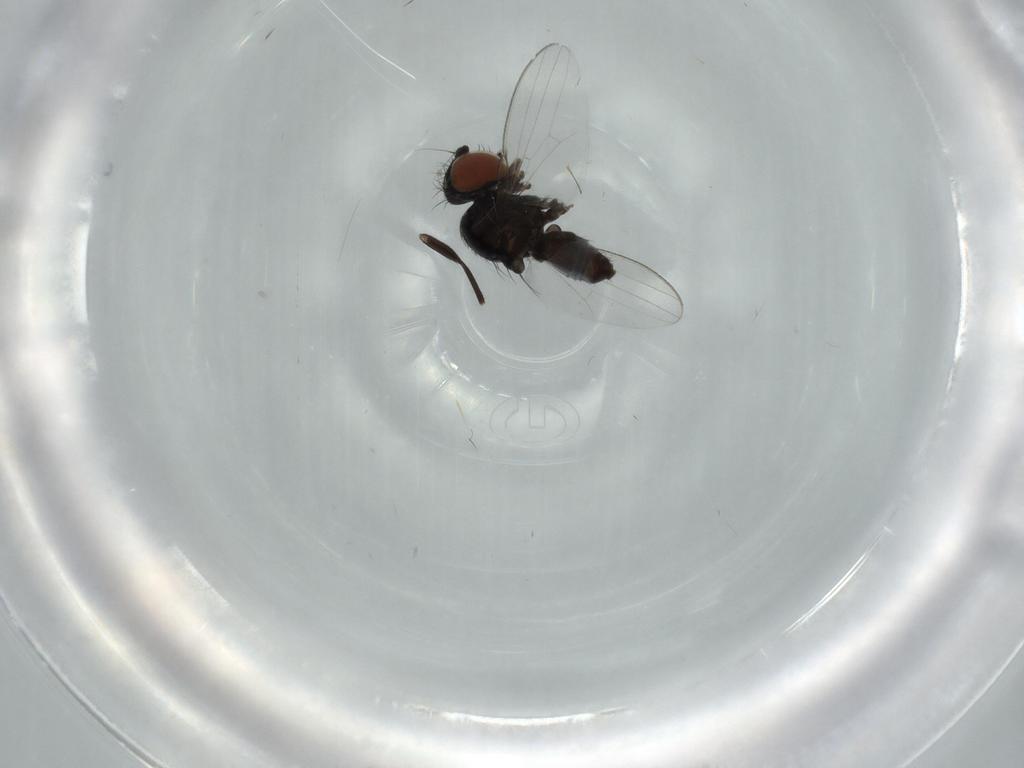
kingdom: Animalia
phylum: Arthropoda
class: Insecta
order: Diptera
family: Milichiidae
